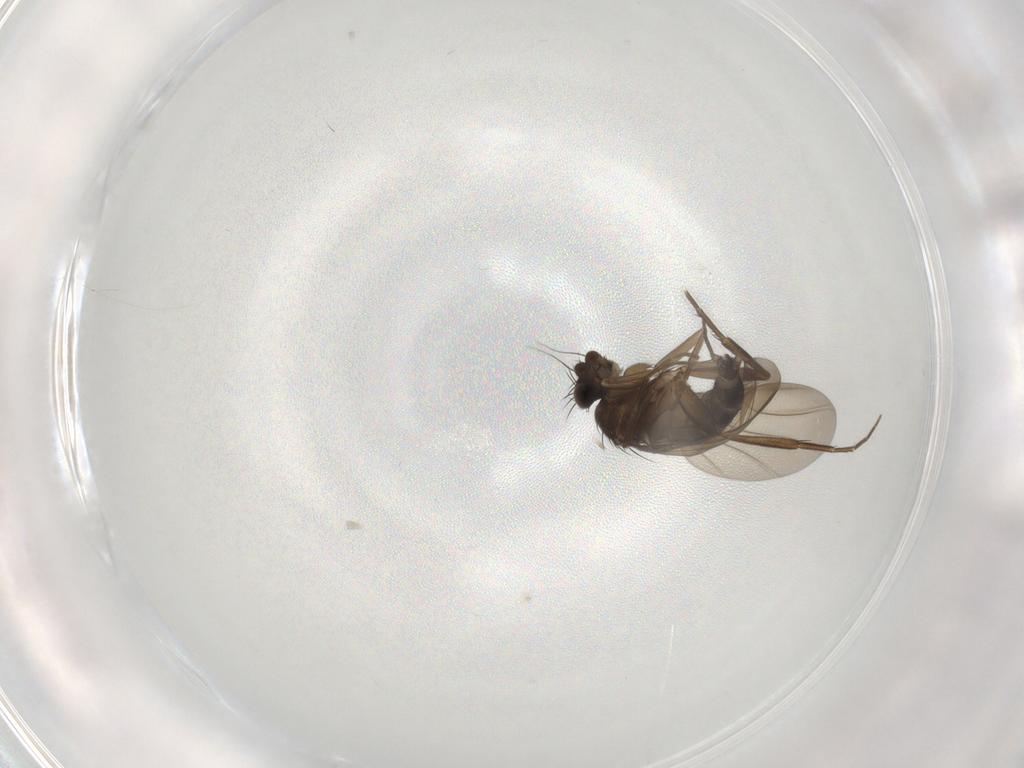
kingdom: Animalia
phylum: Arthropoda
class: Insecta
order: Diptera
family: Phoridae
